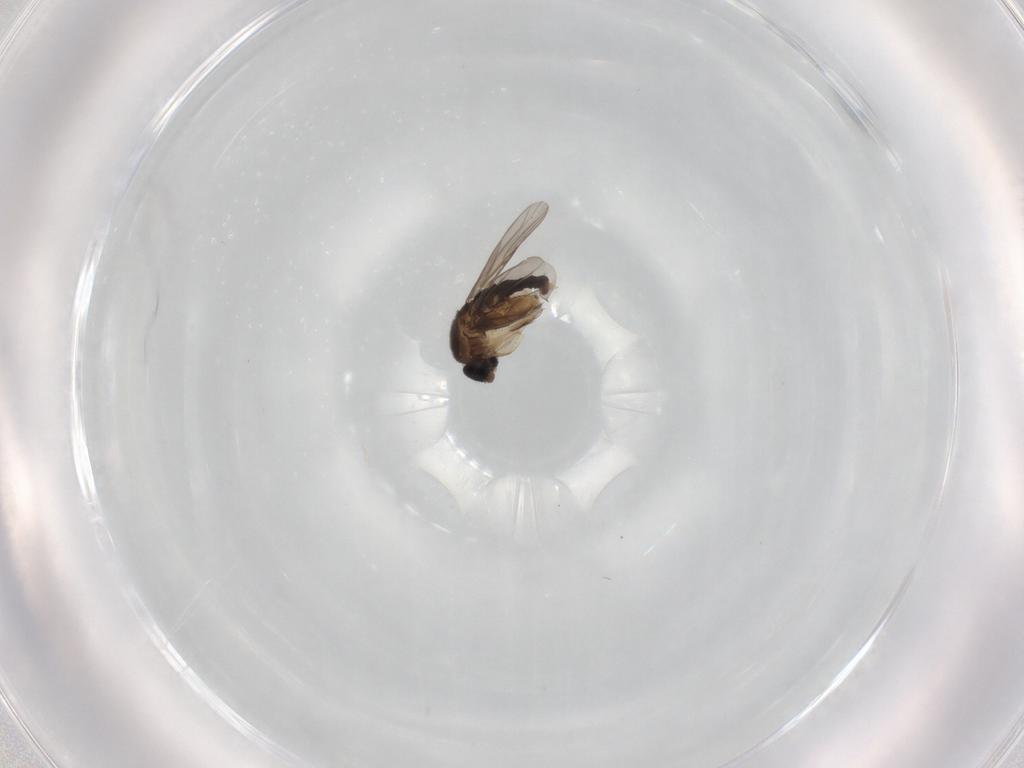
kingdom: Animalia
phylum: Arthropoda
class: Insecta
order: Diptera
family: Phoridae
